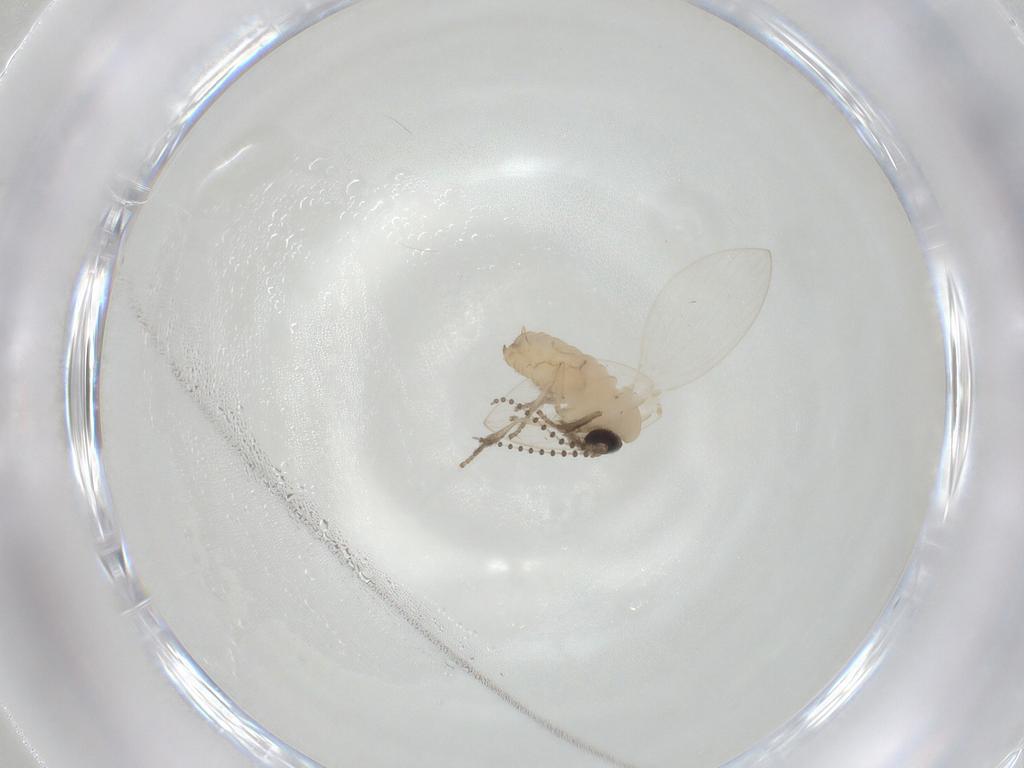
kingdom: Animalia
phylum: Arthropoda
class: Insecta
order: Diptera
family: Psychodidae
